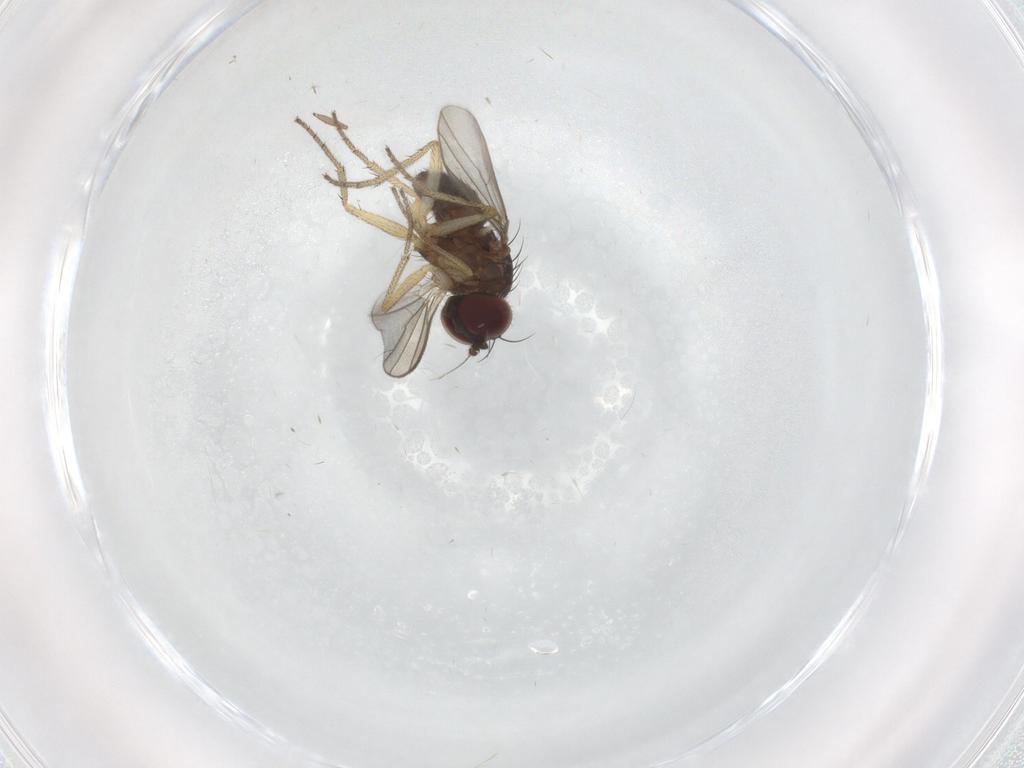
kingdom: Animalia
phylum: Arthropoda
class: Insecta
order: Diptera
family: Dolichopodidae
